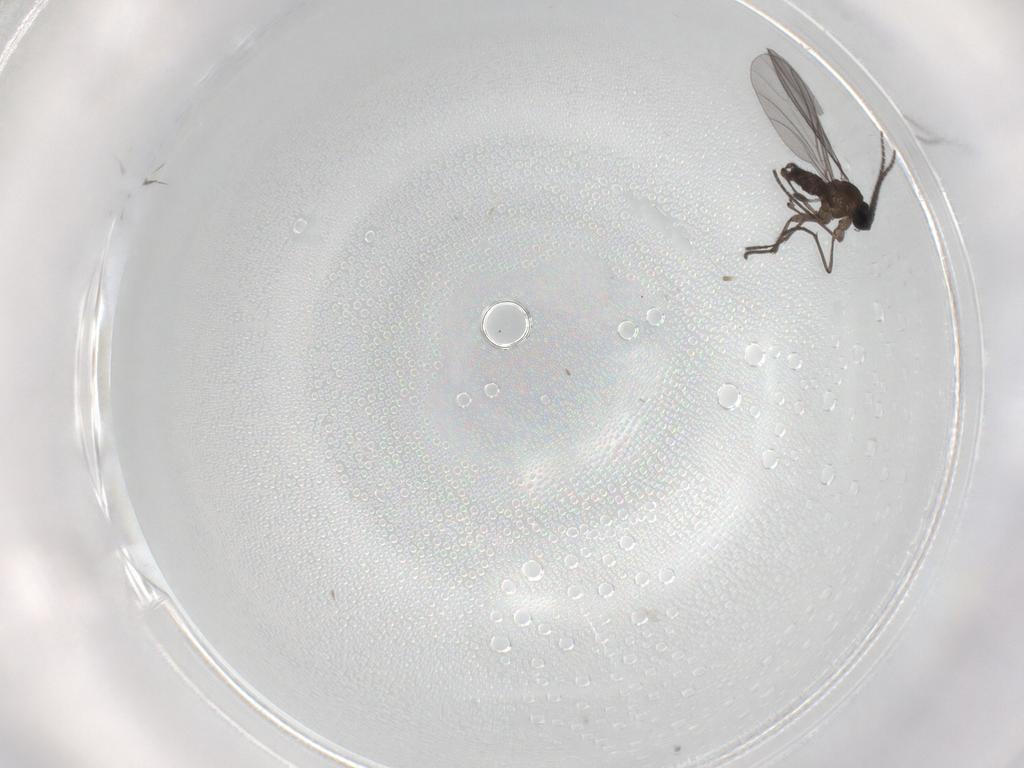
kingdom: Animalia
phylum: Arthropoda
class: Insecta
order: Diptera
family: Sciaridae
